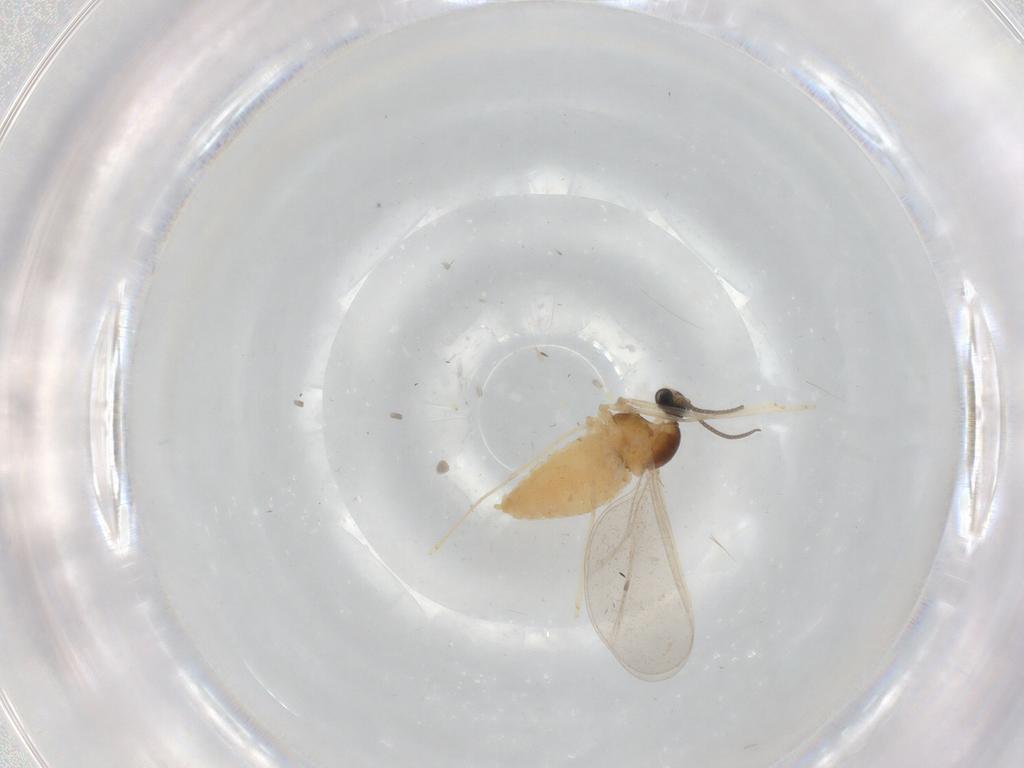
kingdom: Animalia
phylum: Arthropoda
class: Insecta
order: Diptera
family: Cecidomyiidae
